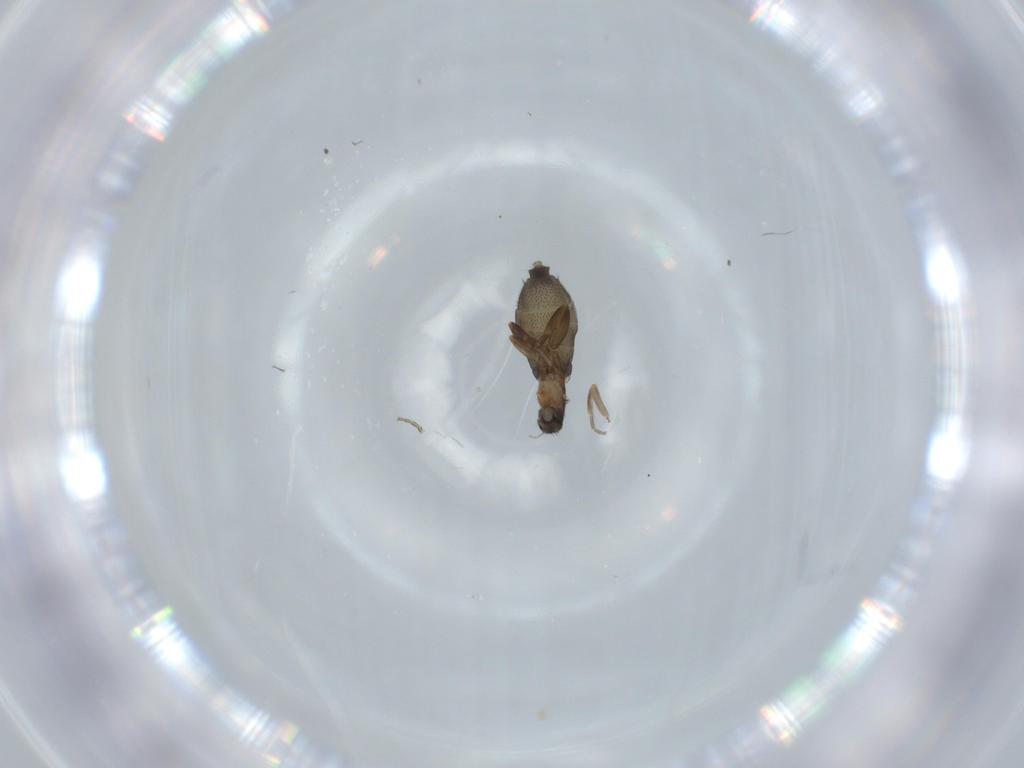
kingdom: Animalia
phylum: Arthropoda
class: Insecta
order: Diptera
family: Phoridae
